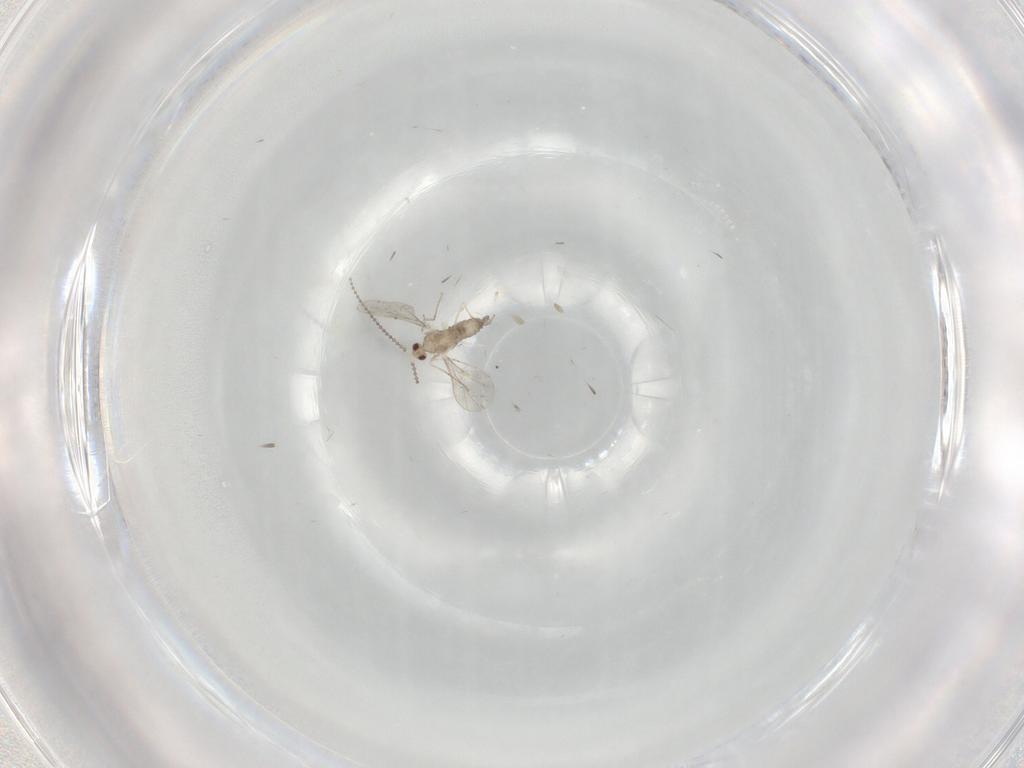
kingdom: Animalia
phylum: Arthropoda
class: Insecta
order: Diptera
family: Cecidomyiidae
